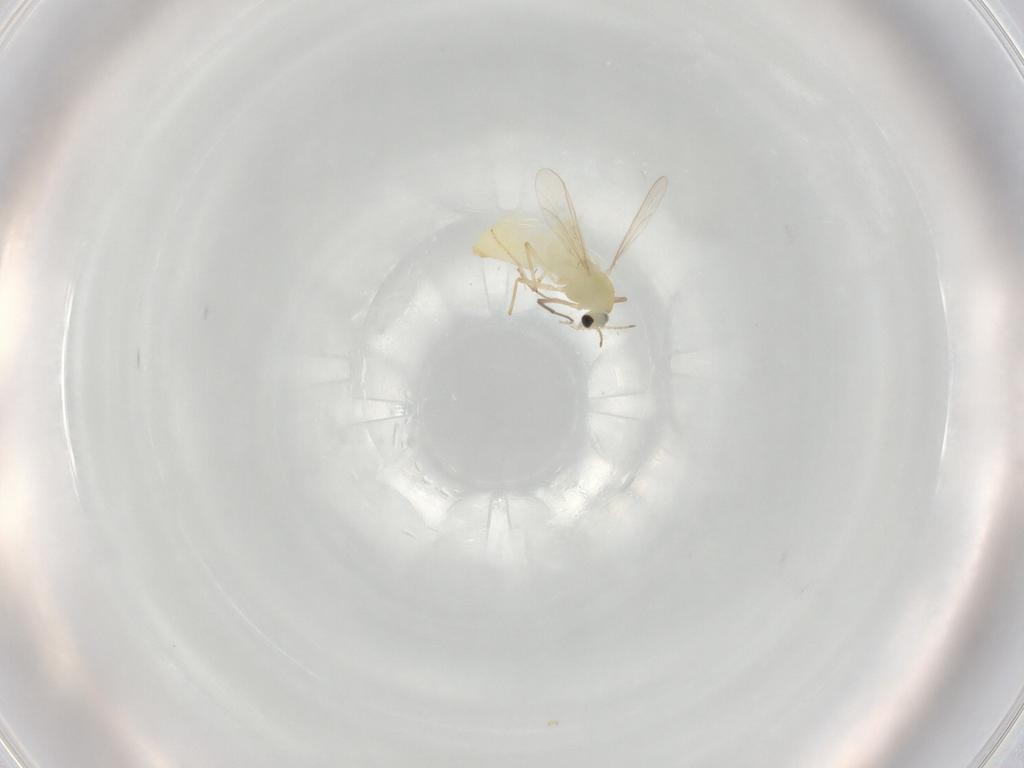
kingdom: Animalia
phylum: Arthropoda
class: Insecta
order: Diptera
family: Chironomidae
